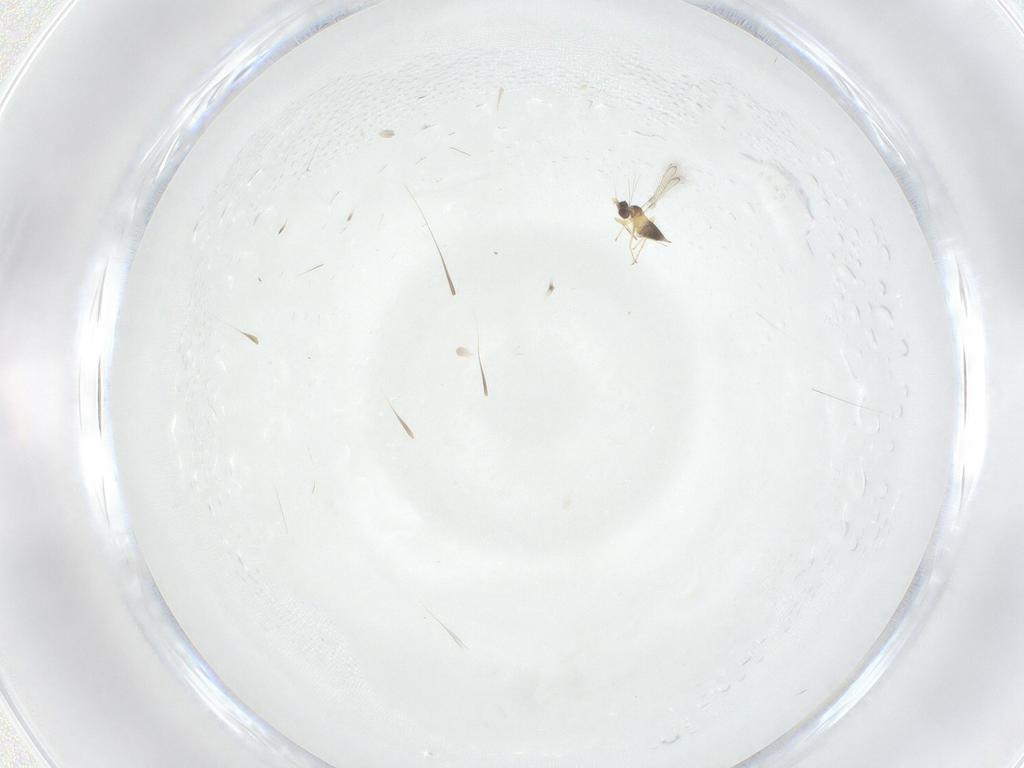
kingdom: Animalia
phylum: Arthropoda
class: Insecta
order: Hymenoptera
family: Mymaridae
